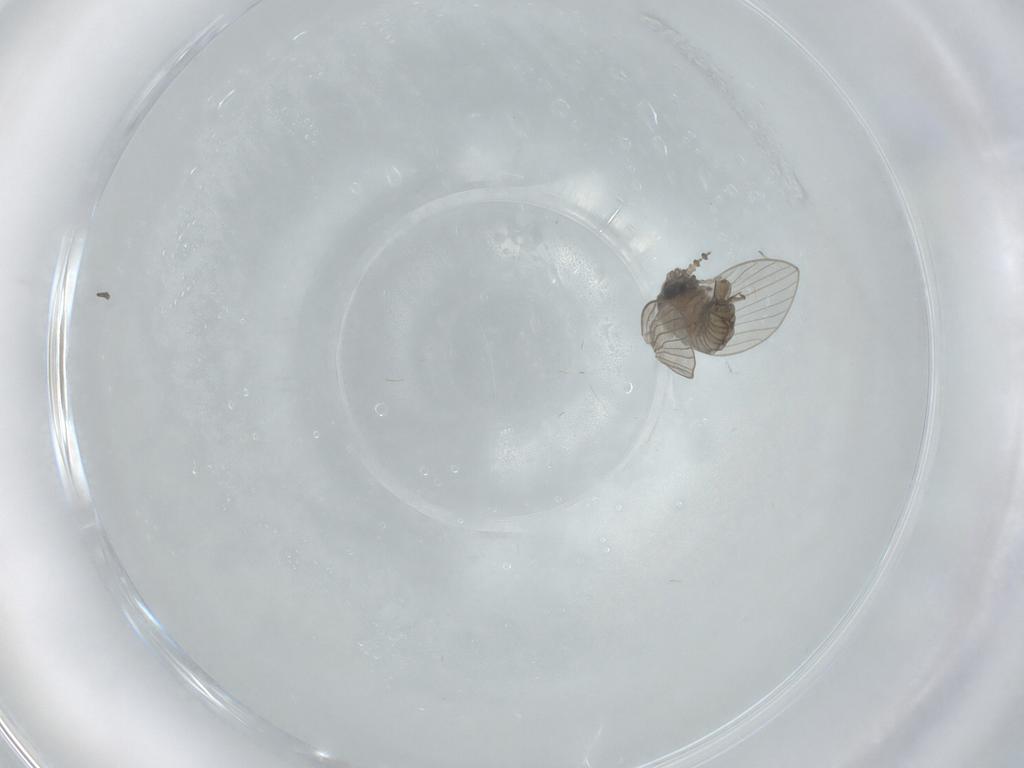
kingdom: Animalia
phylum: Arthropoda
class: Insecta
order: Diptera
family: Psychodidae
